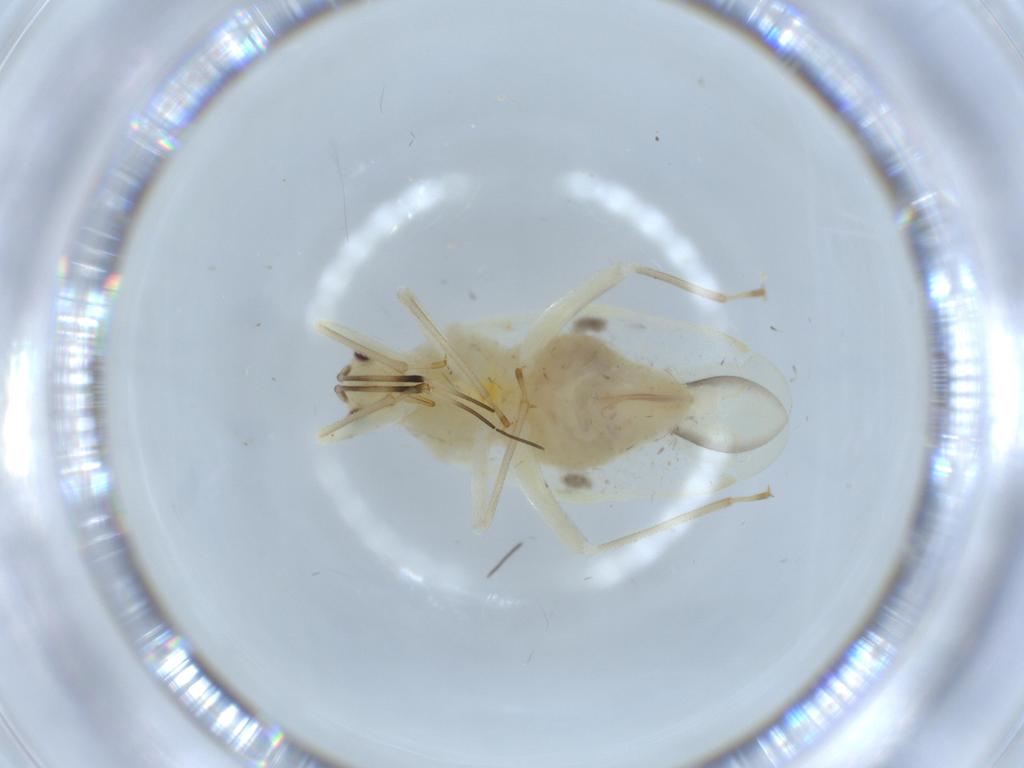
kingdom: Animalia
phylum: Arthropoda
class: Insecta
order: Hemiptera
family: Miridae
